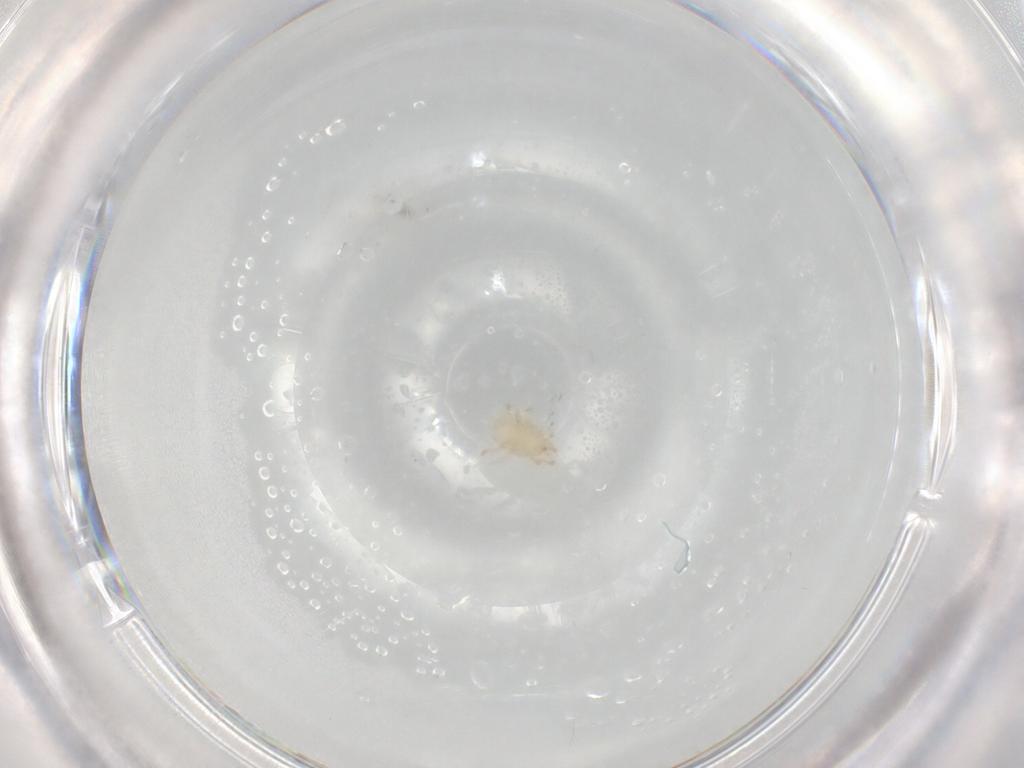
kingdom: Animalia
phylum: Arthropoda
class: Arachnida
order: Mesostigmata
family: Melicharidae
